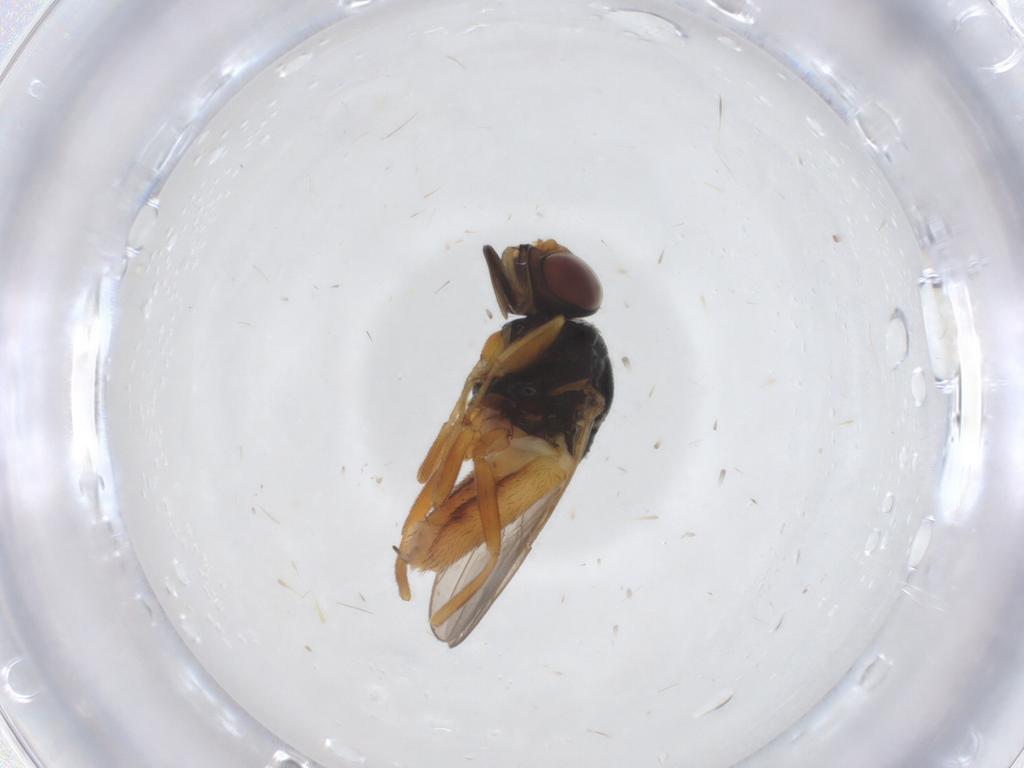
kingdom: Animalia
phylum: Arthropoda
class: Insecta
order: Diptera
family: Chloropidae
